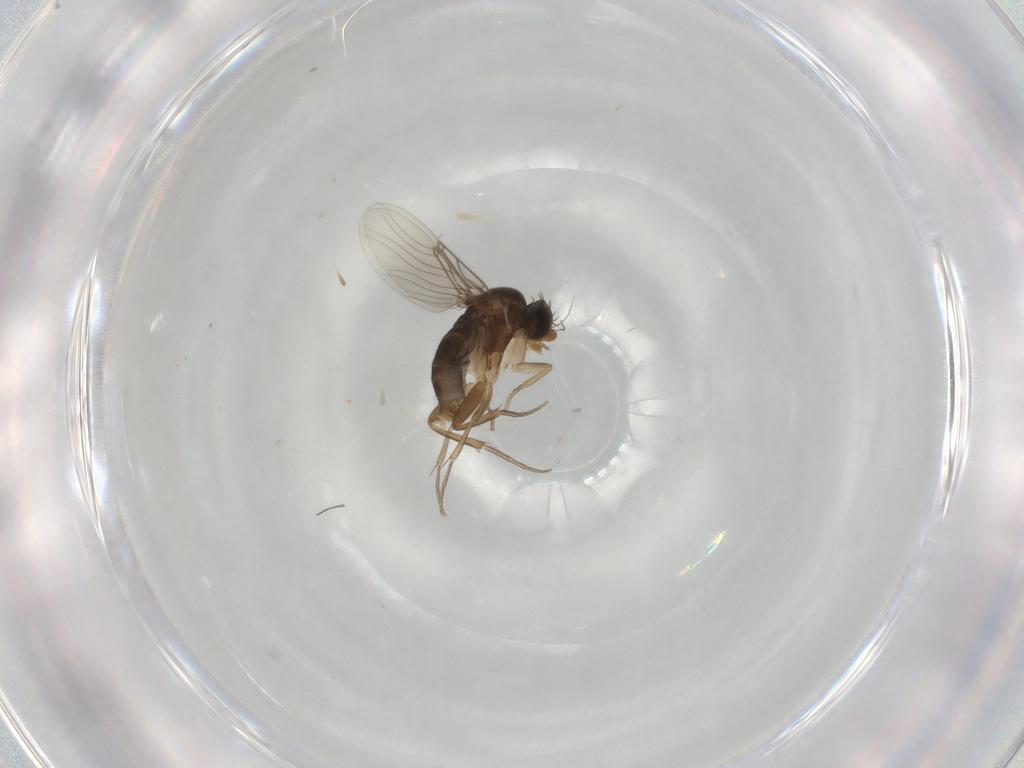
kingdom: Animalia
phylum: Arthropoda
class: Insecta
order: Diptera
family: Phoridae
